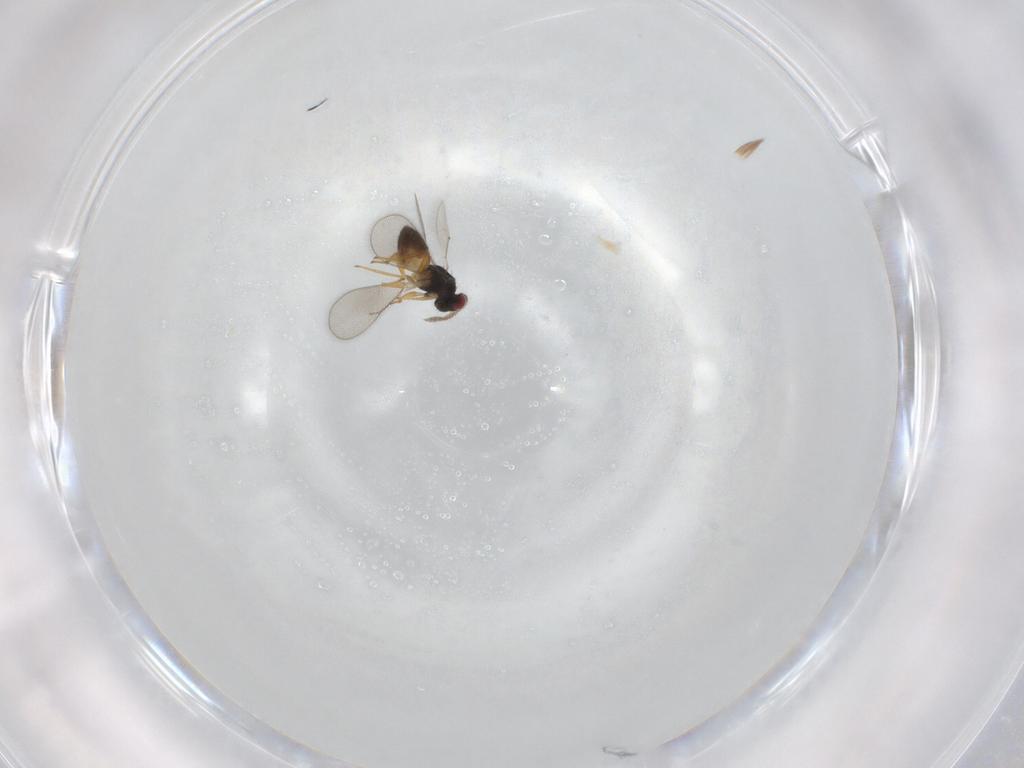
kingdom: Animalia
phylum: Arthropoda
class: Insecta
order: Hymenoptera
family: Eulophidae
